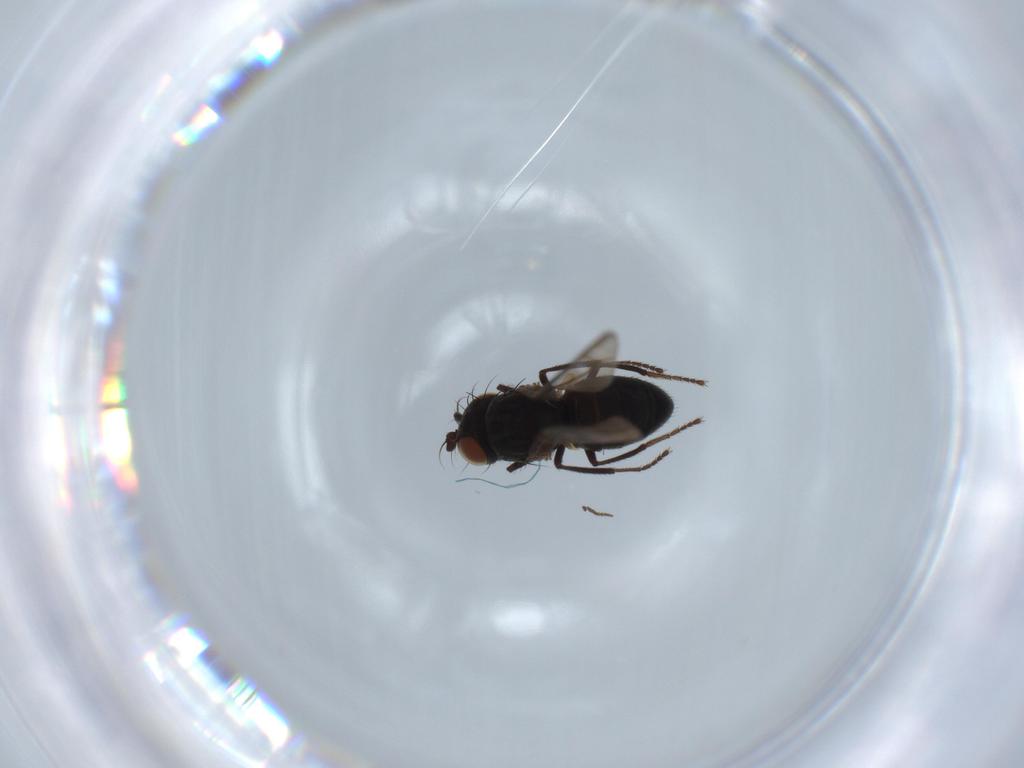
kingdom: Animalia
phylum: Arthropoda
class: Insecta
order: Diptera
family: Ephydridae
